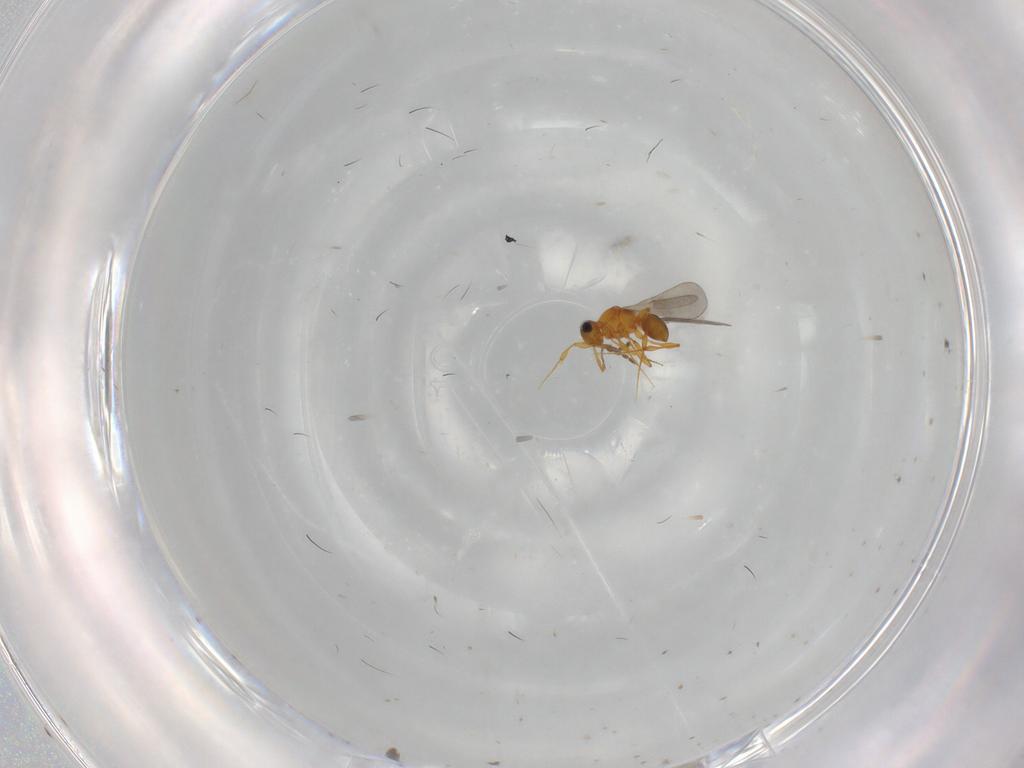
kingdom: Animalia
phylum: Arthropoda
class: Insecta
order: Hymenoptera
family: Platygastridae
